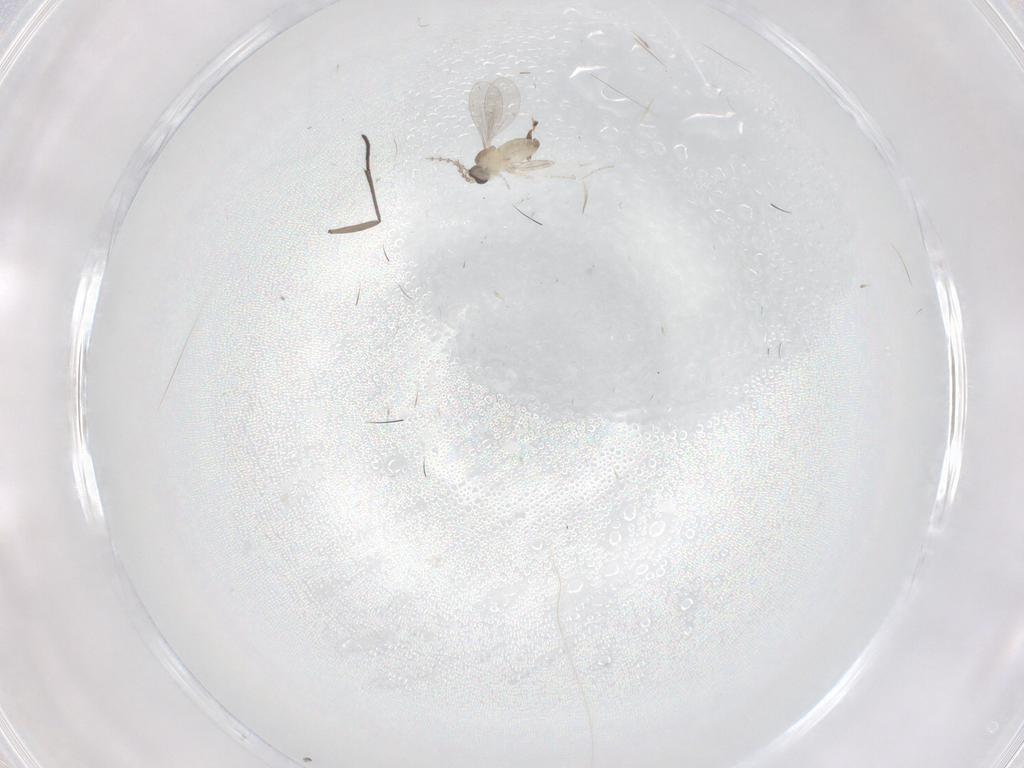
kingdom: Animalia
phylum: Arthropoda
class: Insecta
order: Diptera
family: Cecidomyiidae
